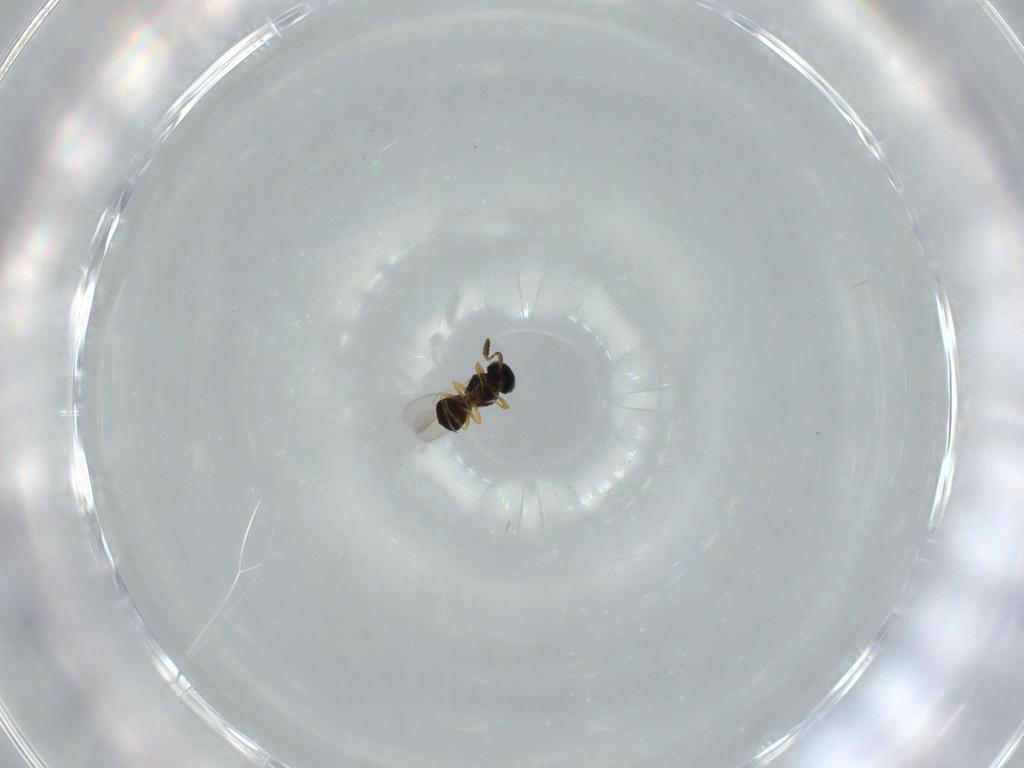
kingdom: Animalia
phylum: Arthropoda
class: Insecta
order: Hymenoptera
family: Scelionidae
